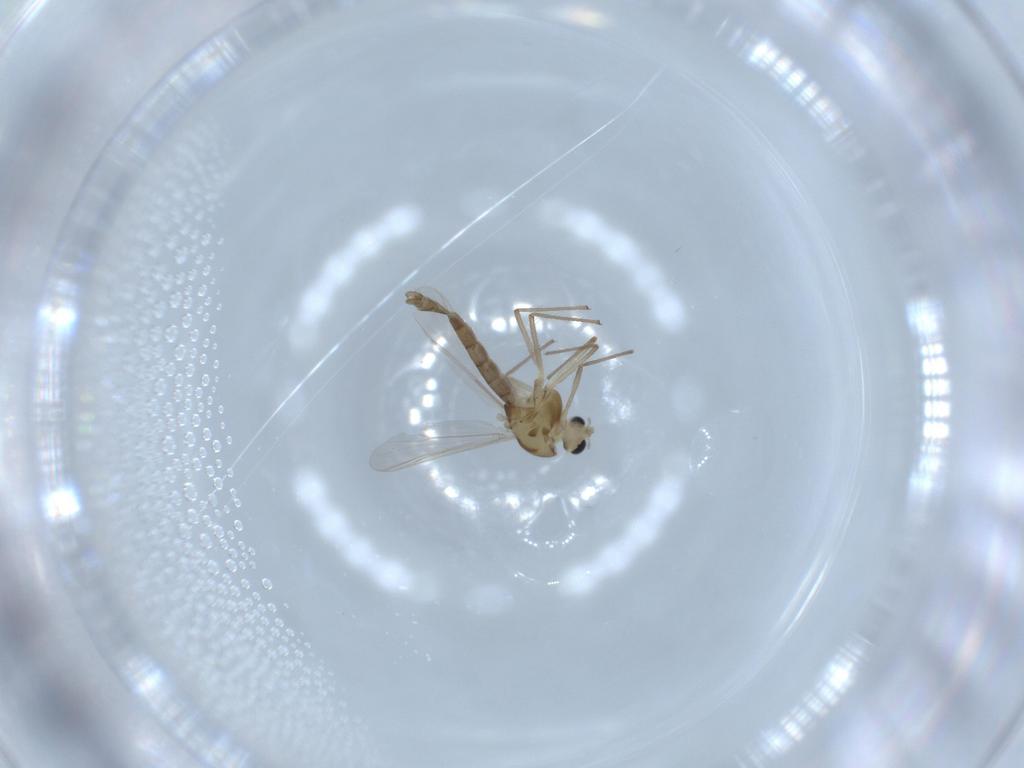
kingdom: Animalia
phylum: Arthropoda
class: Insecta
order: Diptera
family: Chironomidae
